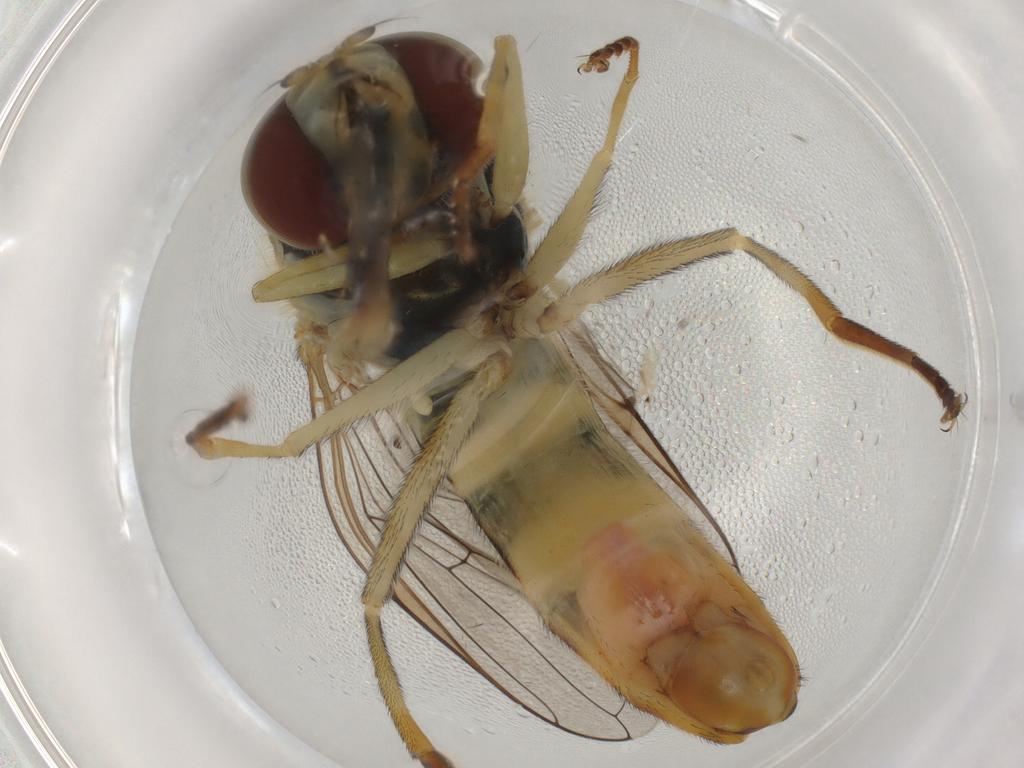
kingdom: Animalia
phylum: Arthropoda
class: Insecta
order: Diptera
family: Syrphidae
